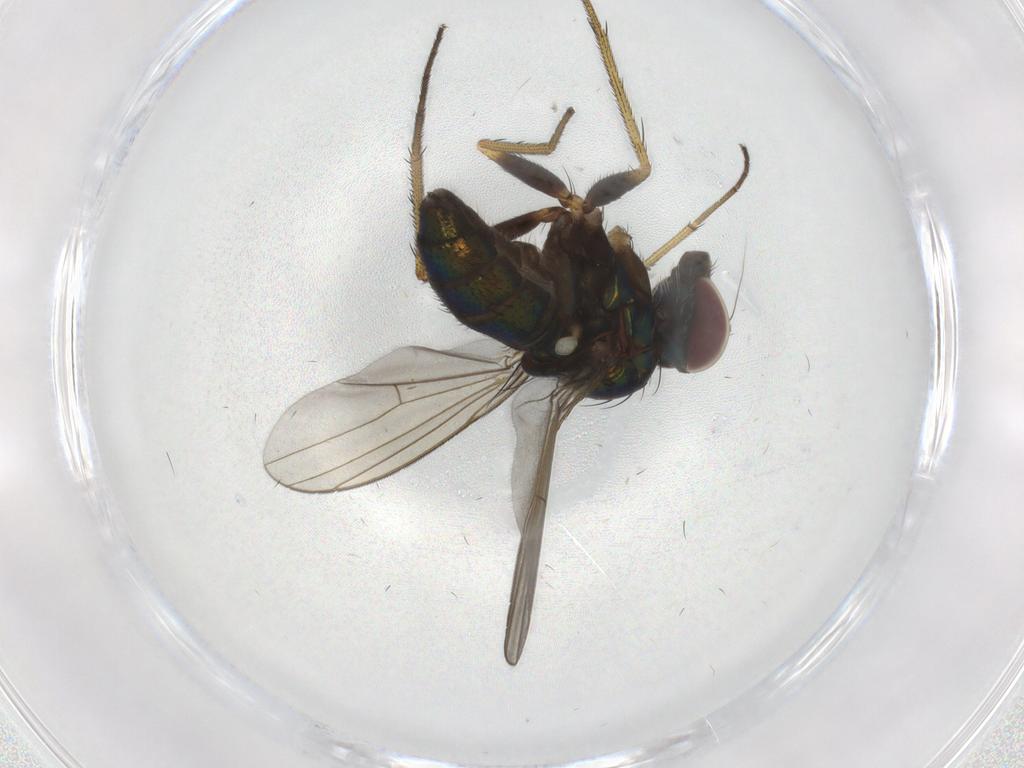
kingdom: Animalia
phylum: Arthropoda
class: Insecta
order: Diptera
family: Dolichopodidae
